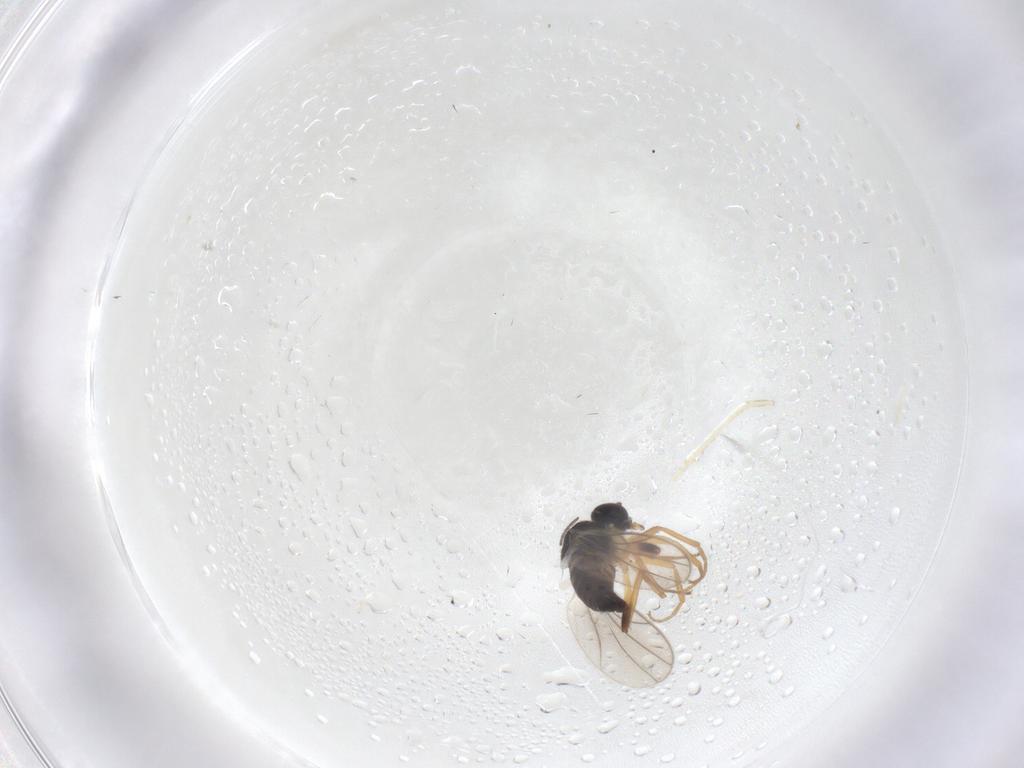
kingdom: Animalia
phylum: Arthropoda
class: Insecta
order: Diptera
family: Hybotidae
